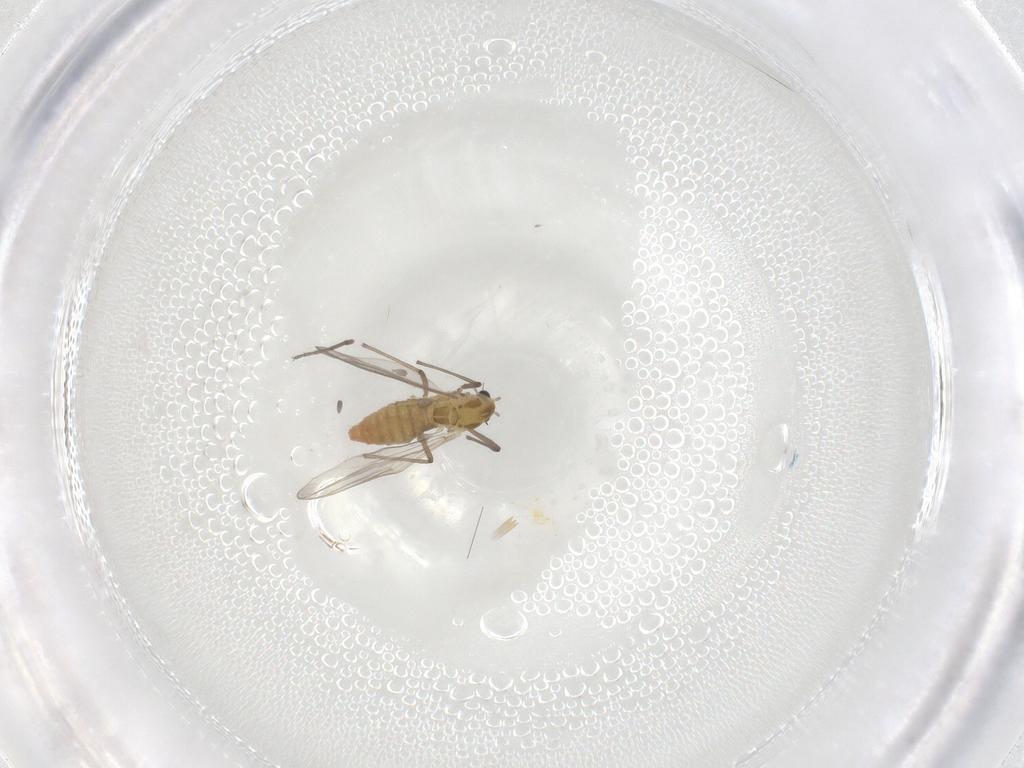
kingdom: Animalia
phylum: Arthropoda
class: Insecta
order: Diptera
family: Chironomidae
